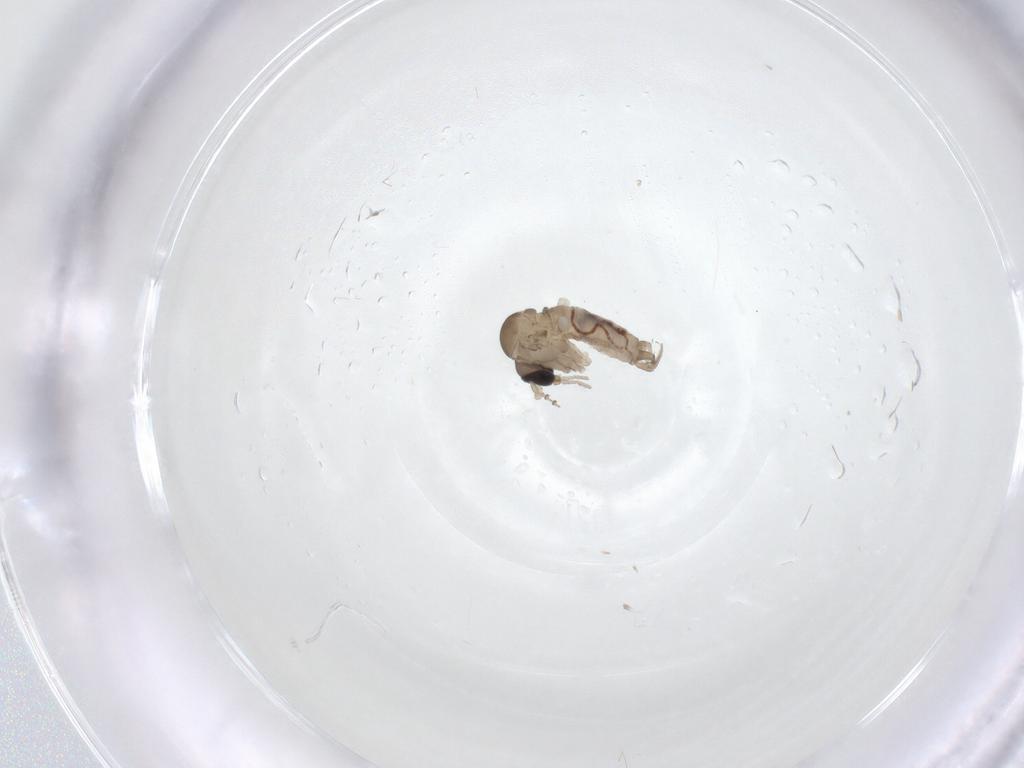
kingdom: Animalia
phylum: Arthropoda
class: Insecta
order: Diptera
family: Psychodidae
